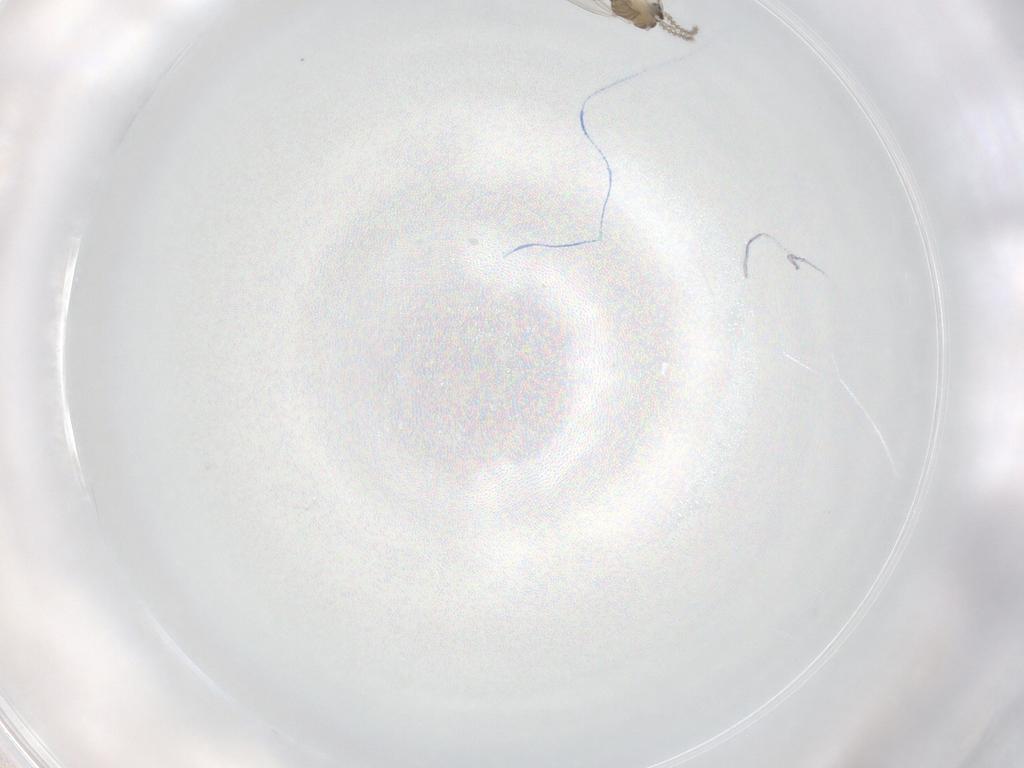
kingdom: Animalia
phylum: Arthropoda
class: Insecta
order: Diptera
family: Cecidomyiidae
